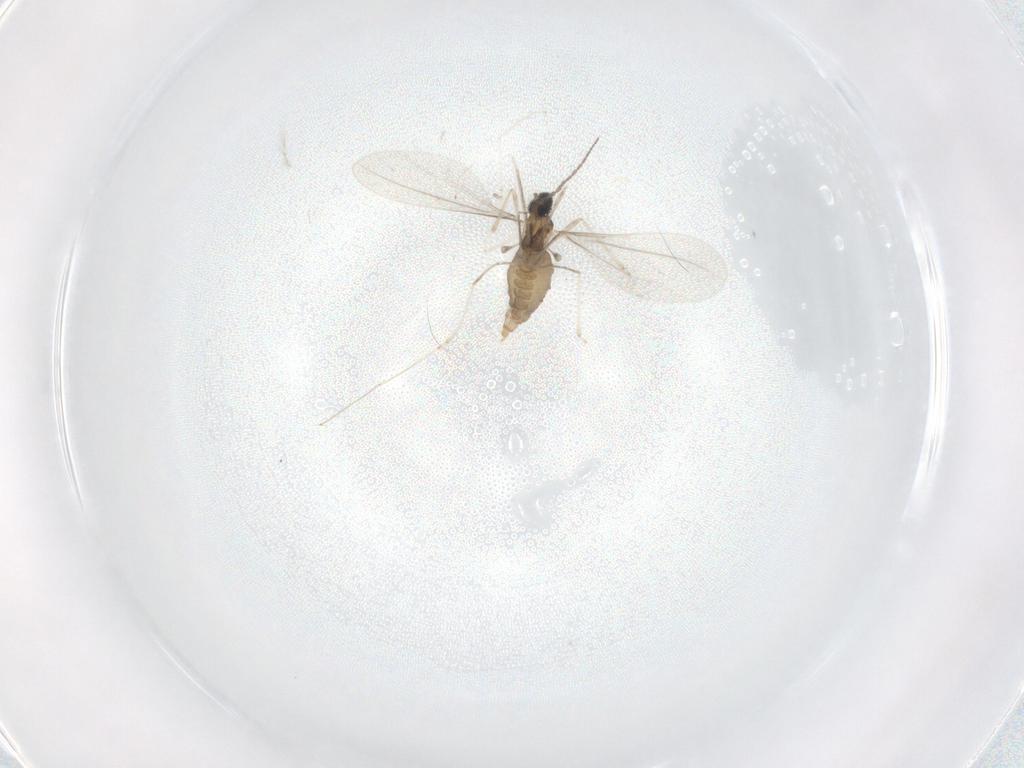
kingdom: Animalia
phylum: Arthropoda
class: Insecta
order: Diptera
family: Cecidomyiidae
